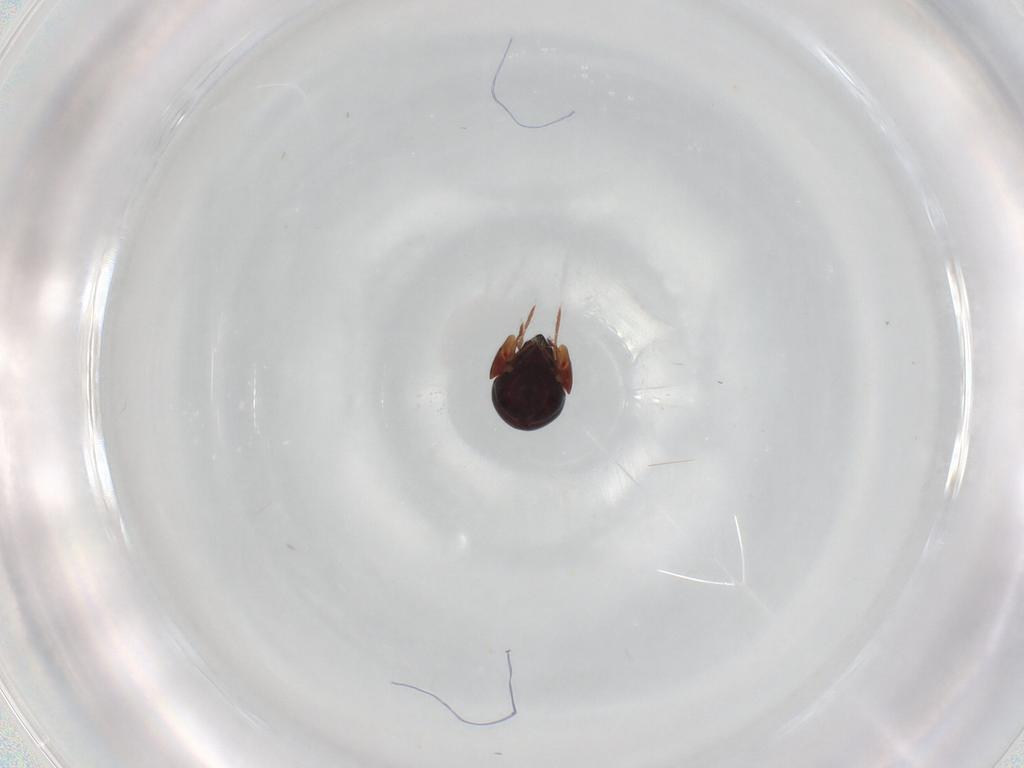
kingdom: Animalia
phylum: Arthropoda
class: Arachnida
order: Sarcoptiformes
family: Ceratozetidae
